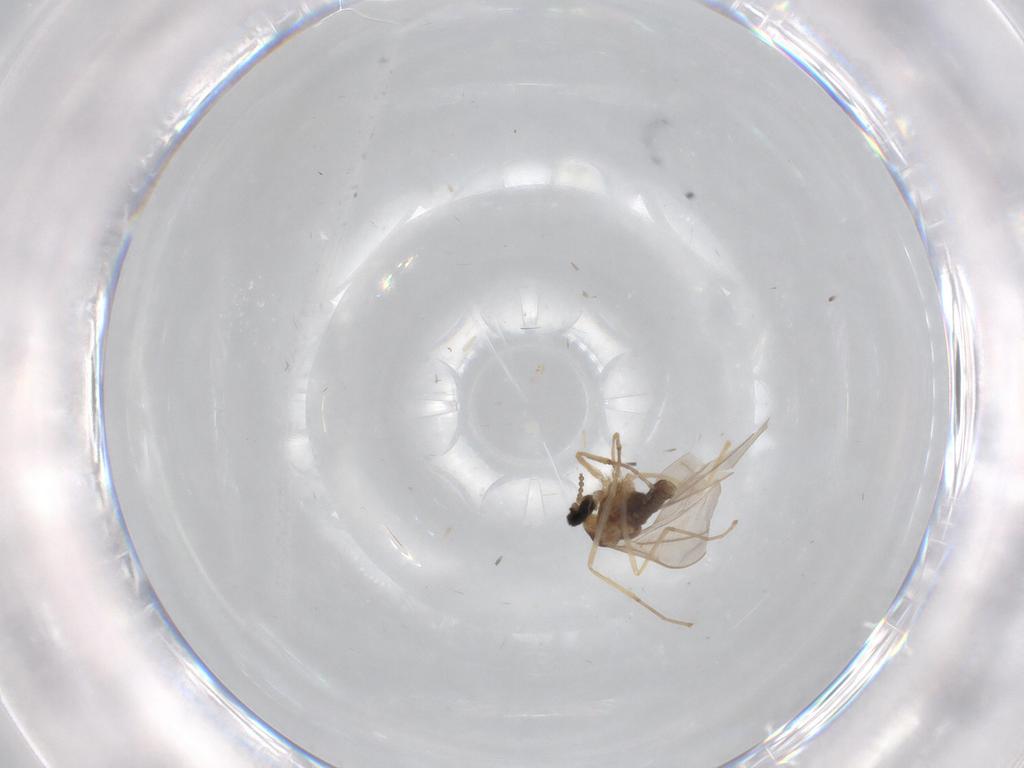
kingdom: Animalia
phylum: Arthropoda
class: Insecta
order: Diptera
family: Cecidomyiidae
